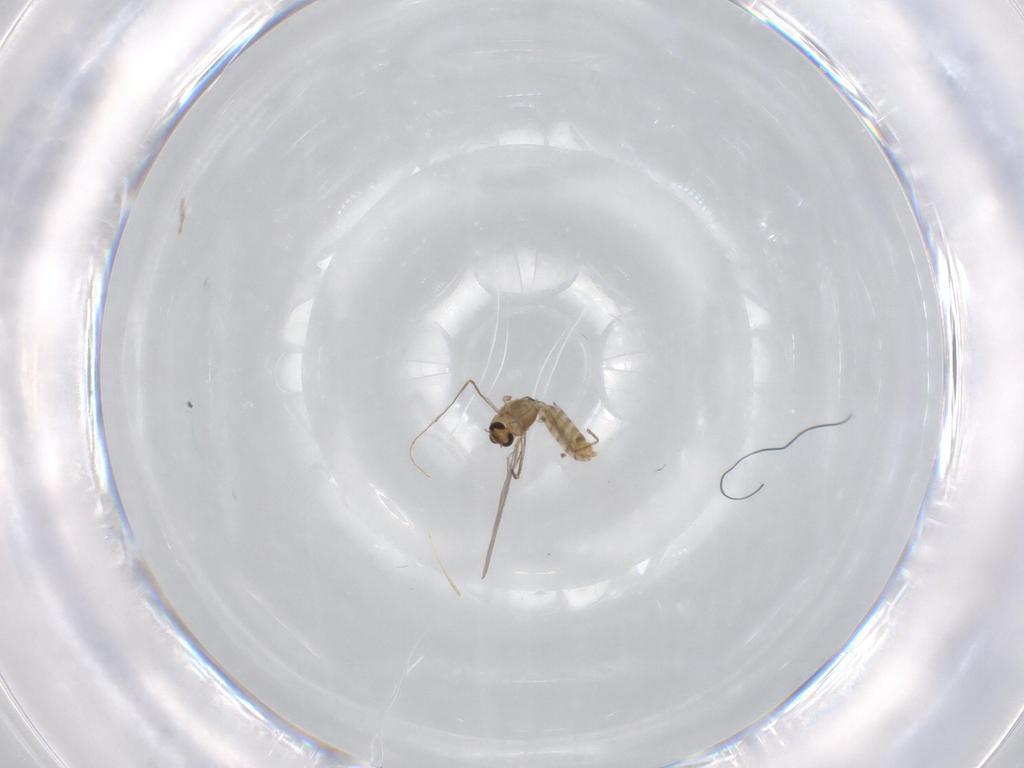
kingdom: Animalia
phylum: Arthropoda
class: Insecta
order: Diptera
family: Chironomidae
